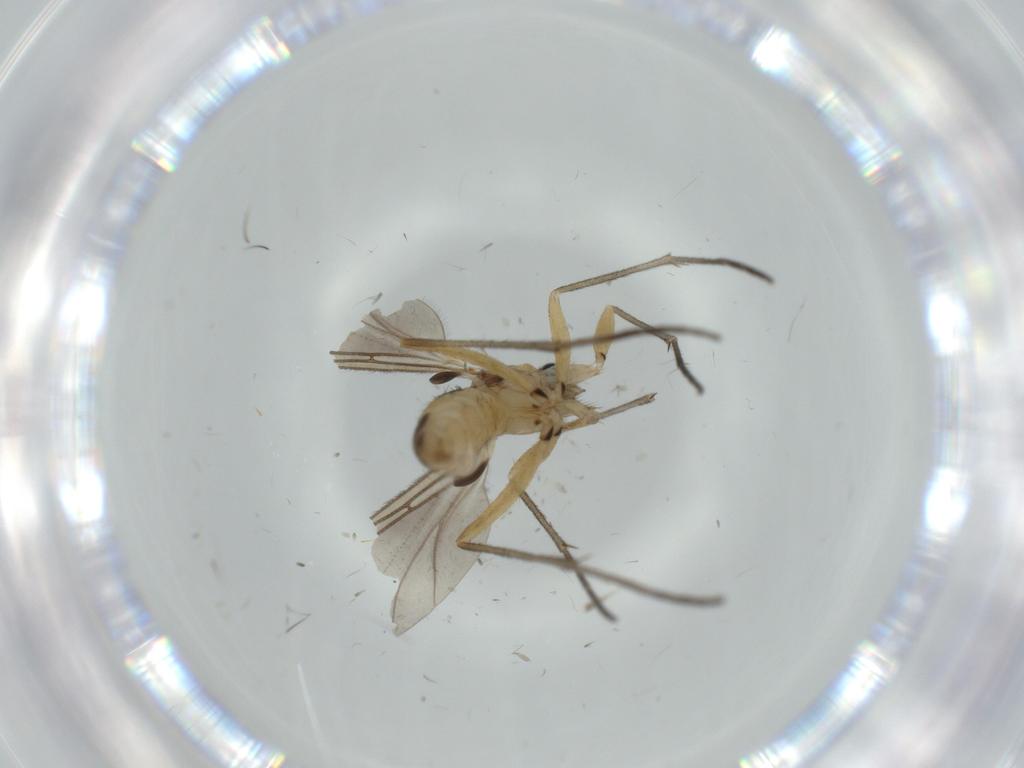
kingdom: Animalia
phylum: Arthropoda
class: Insecta
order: Diptera
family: Sciaridae
